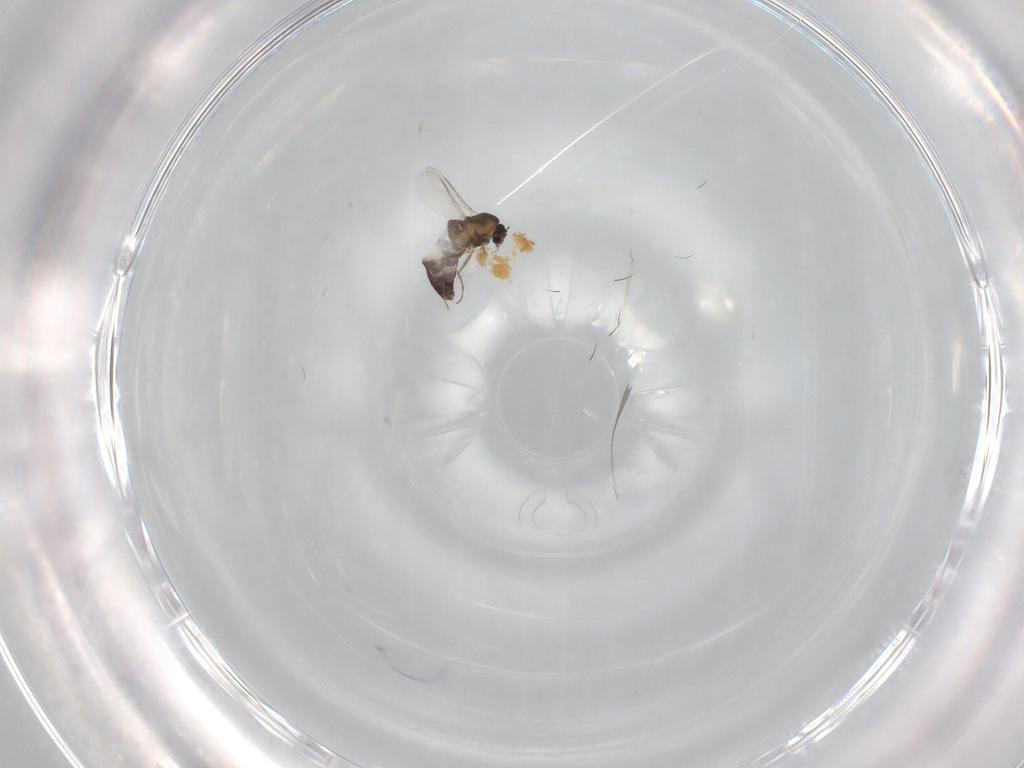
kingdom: Animalia
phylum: Arthropoda
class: Insecta
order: Diptera
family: Chironomidae
